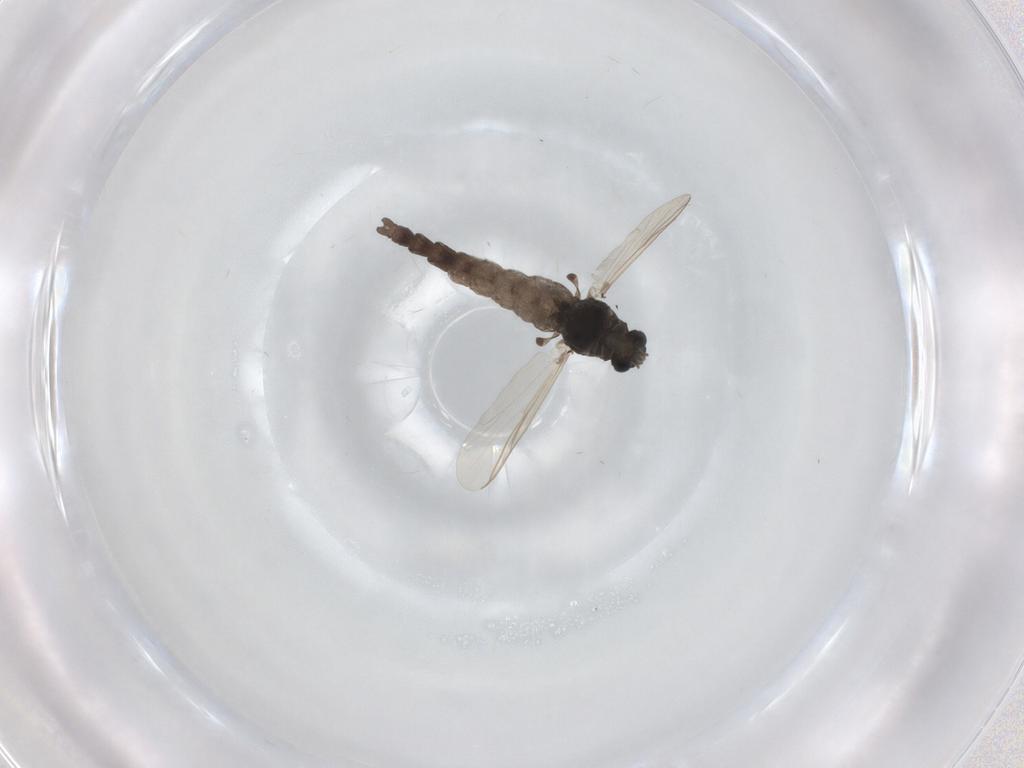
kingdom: Animalia
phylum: Arthropoda
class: Insecta
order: Diptera
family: Chironomidae
